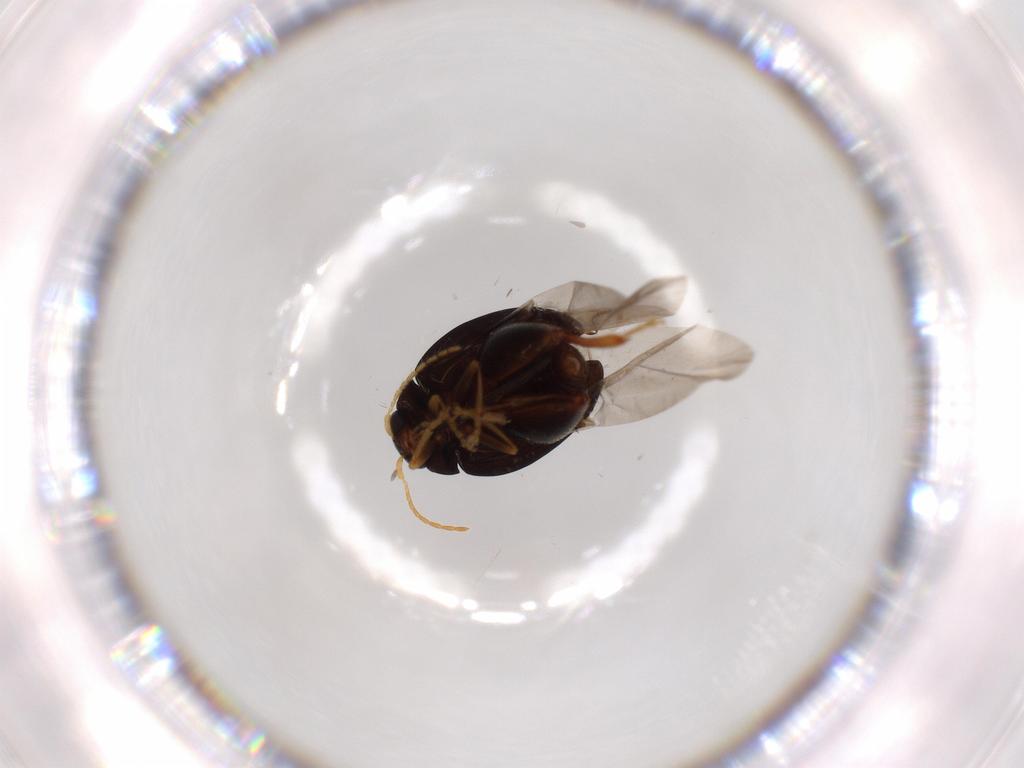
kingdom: Animalia
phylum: Arthropoda
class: Insecta
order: Coleoptera
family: Chrysomelidae
